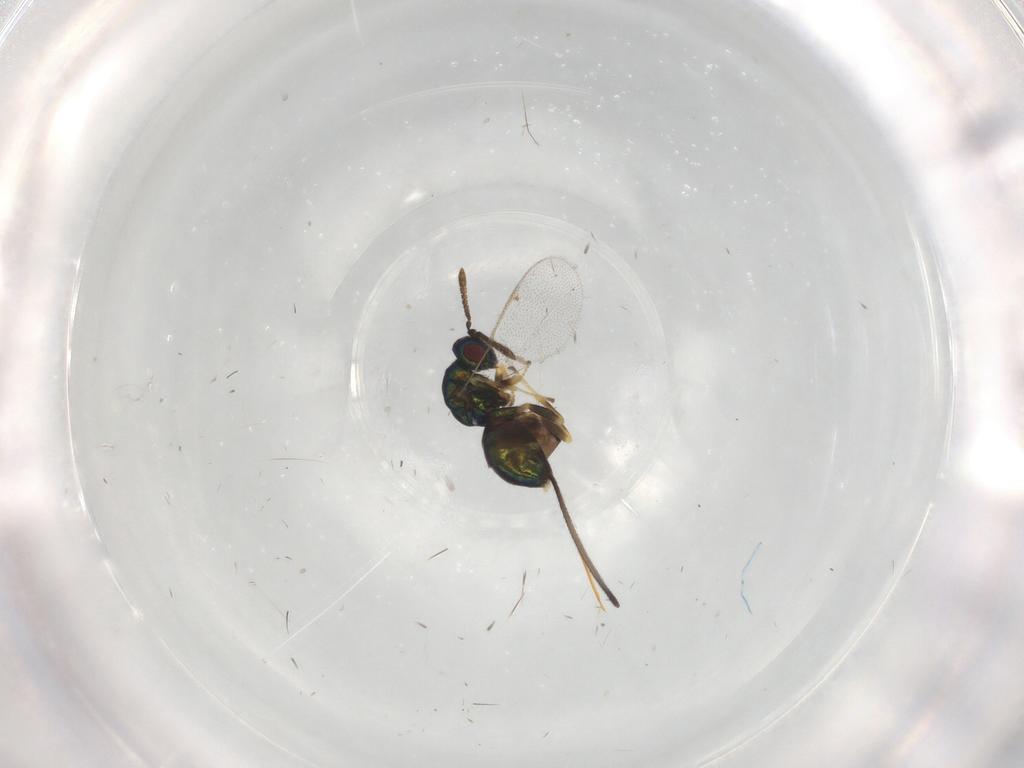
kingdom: Animalia
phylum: Arthropoda
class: Insecta
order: Hymenoptera
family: Torymidae
